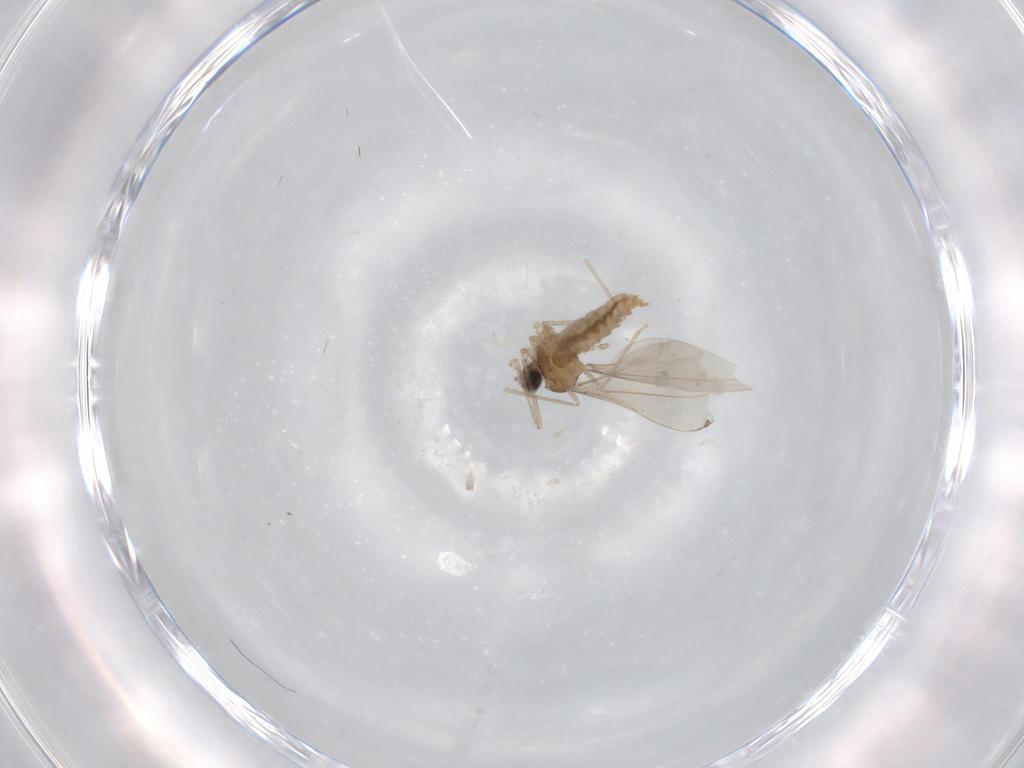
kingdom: Animalia
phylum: Arthropoda
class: Insecta
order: Diptera
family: Cecidomyiidae
